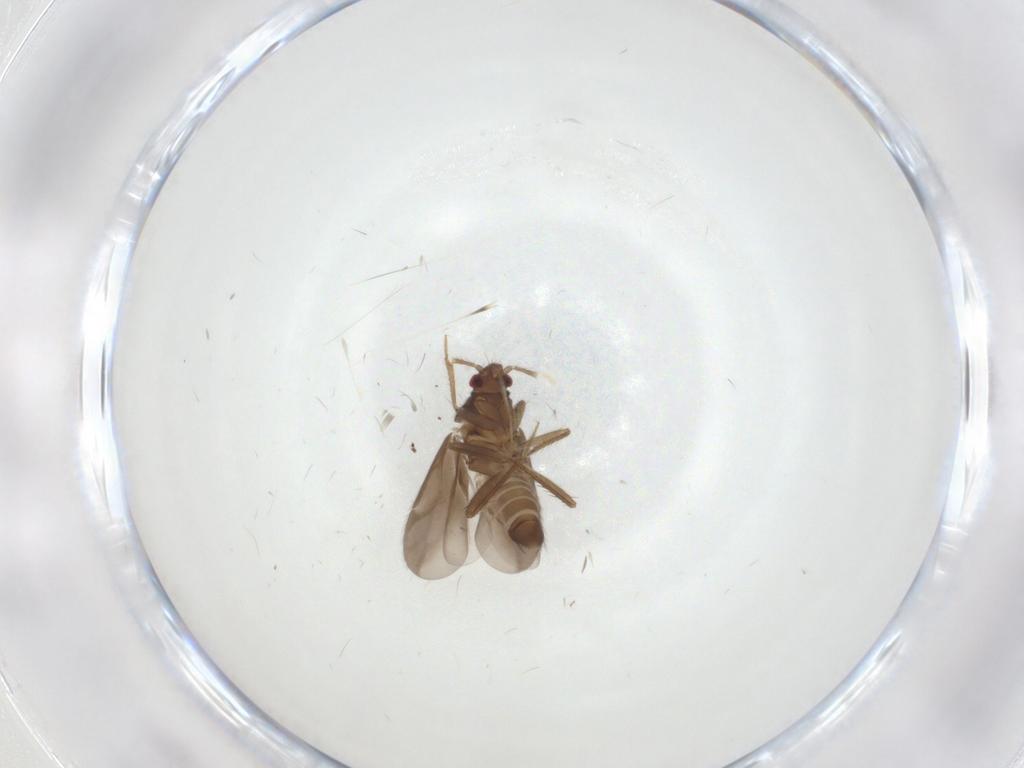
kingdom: Animalia
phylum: Arthropoda
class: Insecta
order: Hemiptera
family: Ceratocombidae
